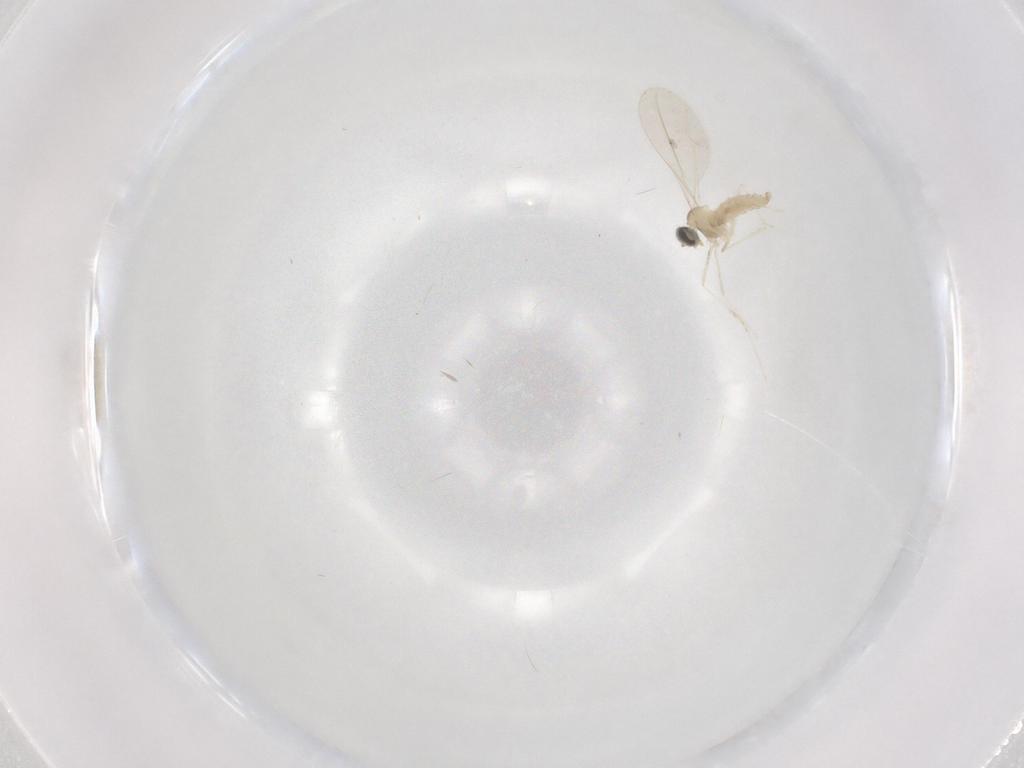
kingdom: Animalia
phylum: Arthropoda
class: Insecta
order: Diptera
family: Cecidomyiidae
